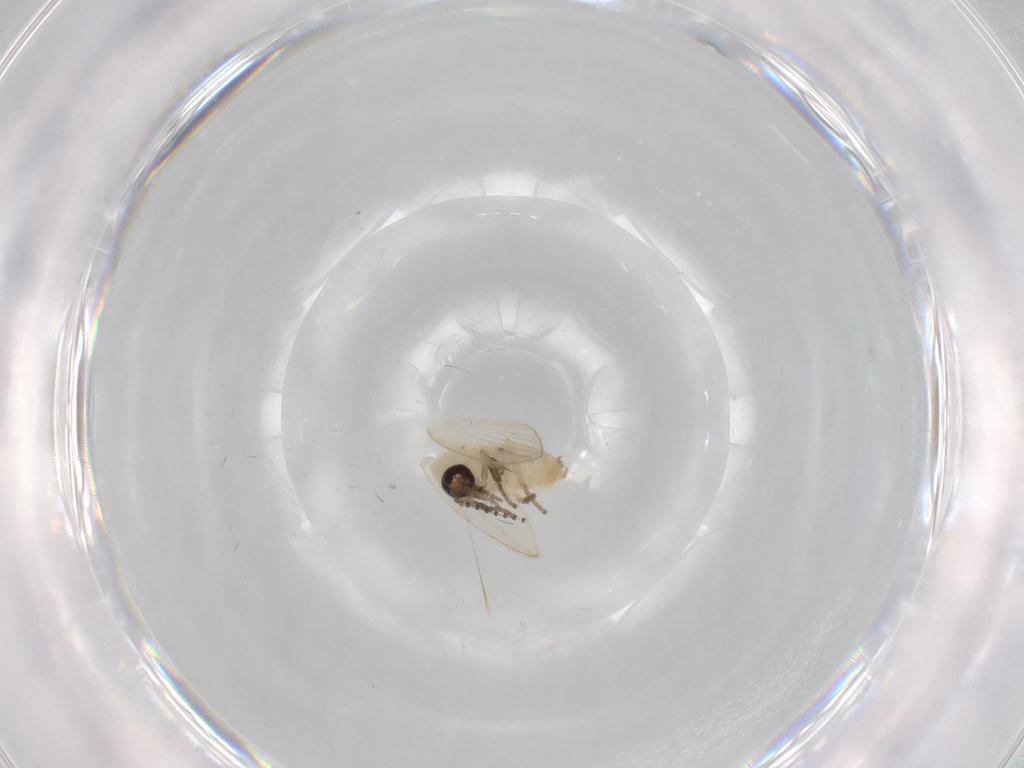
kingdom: Animalia
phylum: Arthropoda
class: Insecta
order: Diptera
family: Psychodidae
